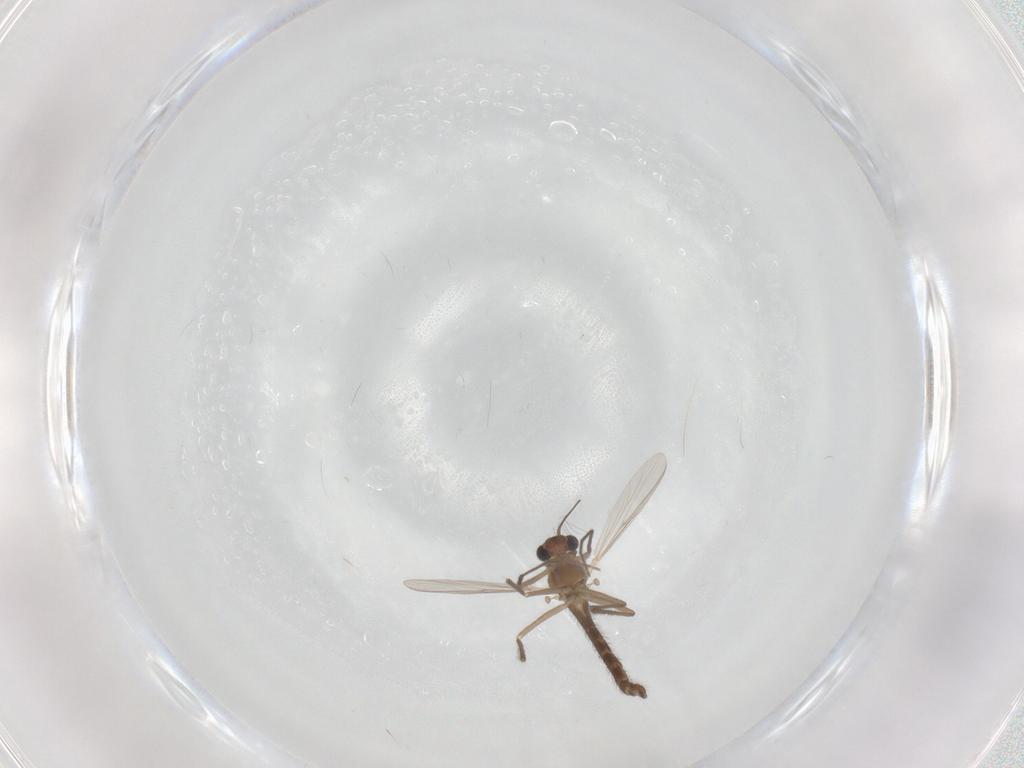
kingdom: Animalia
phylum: Arthropoda
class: Insecta
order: Diptera
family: Chironomidae
